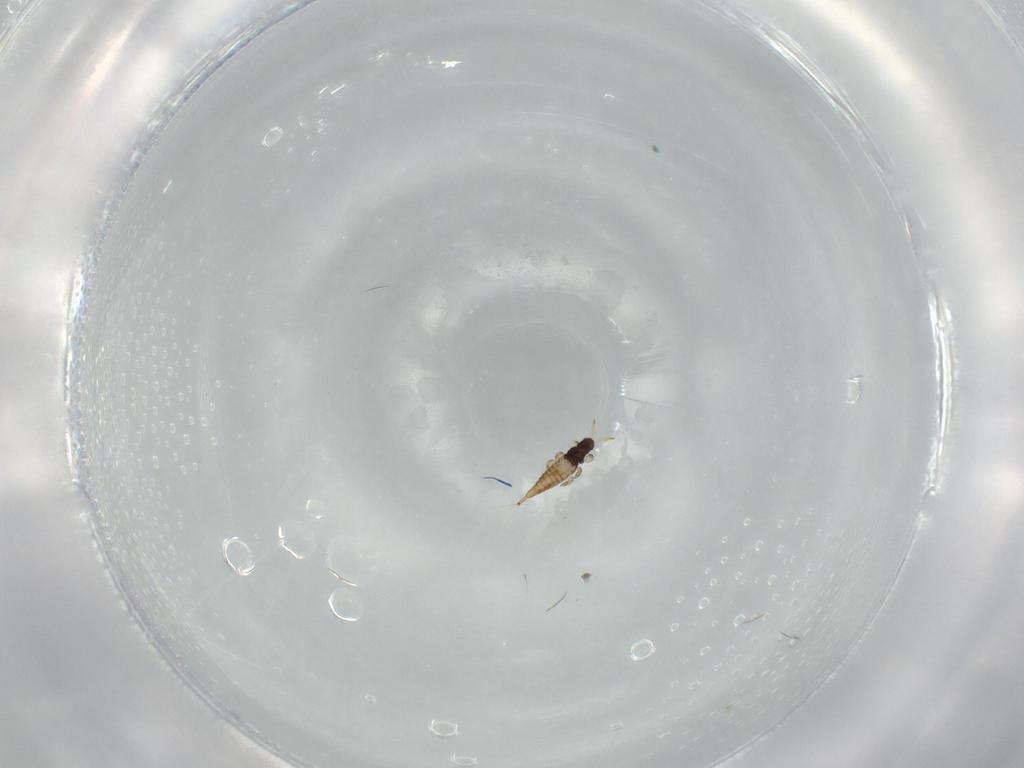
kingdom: Animalia
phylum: Arthropoda
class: Insecta
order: Thysanoptera
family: Phlaeothripidae
